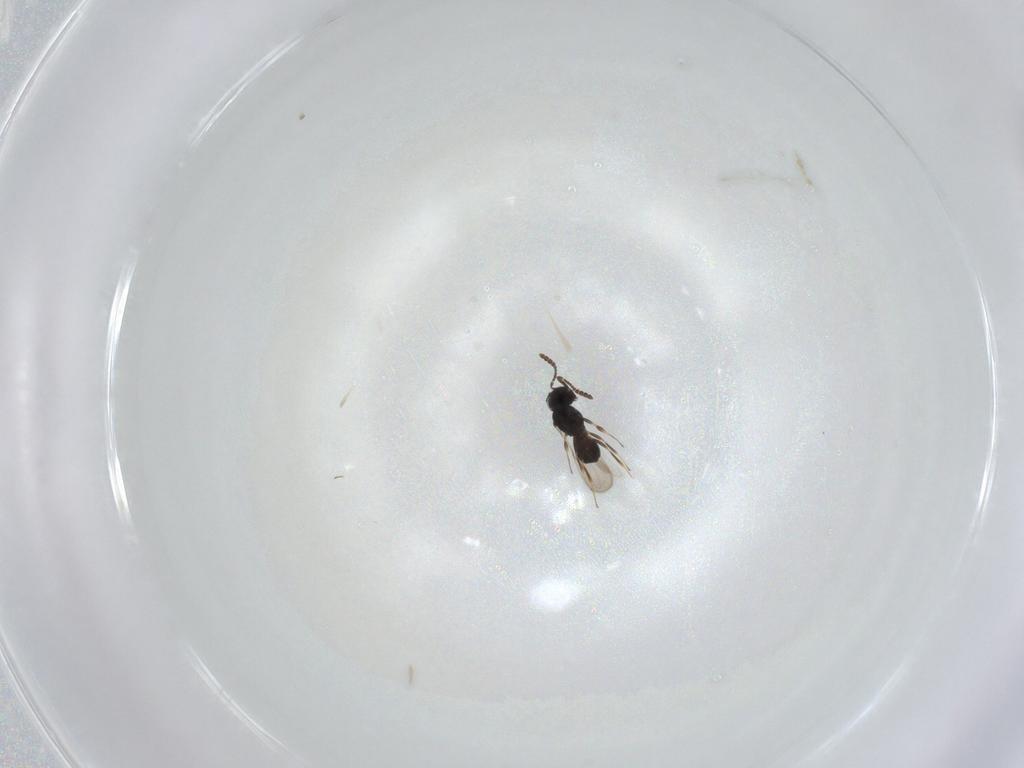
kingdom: Animalia
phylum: Arthropoda
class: Insecta
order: Hymenoptera
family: Scelionidae
